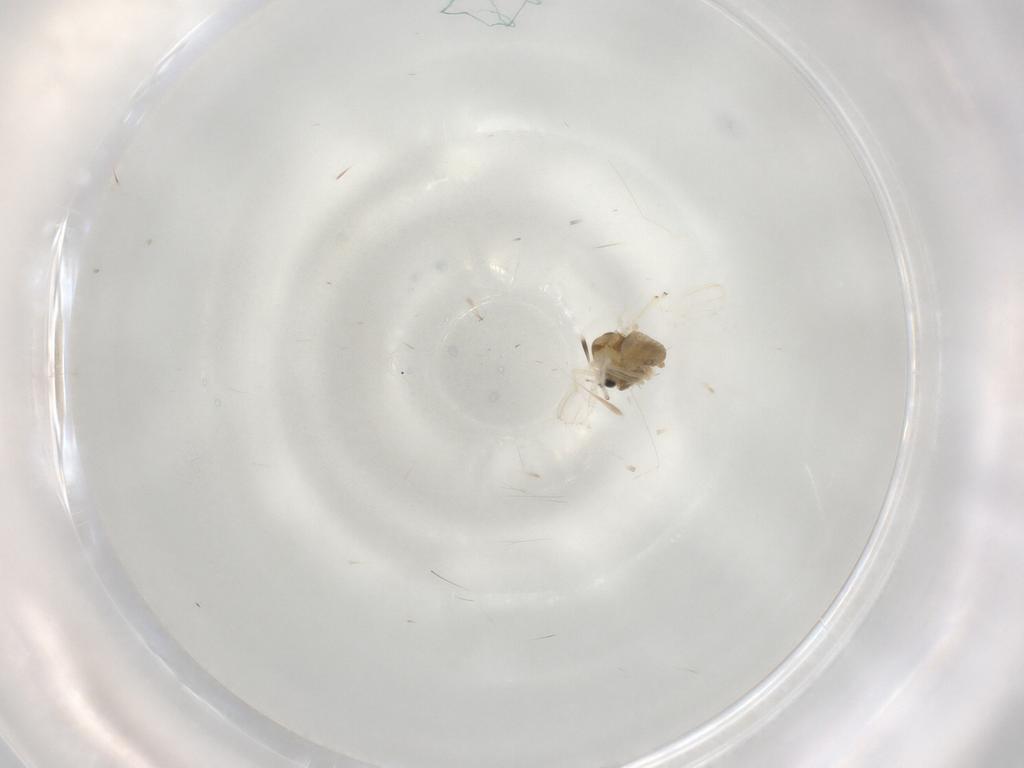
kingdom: Animalia
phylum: Arthropoda
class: Insecta
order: Diptera
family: Chironomidae
